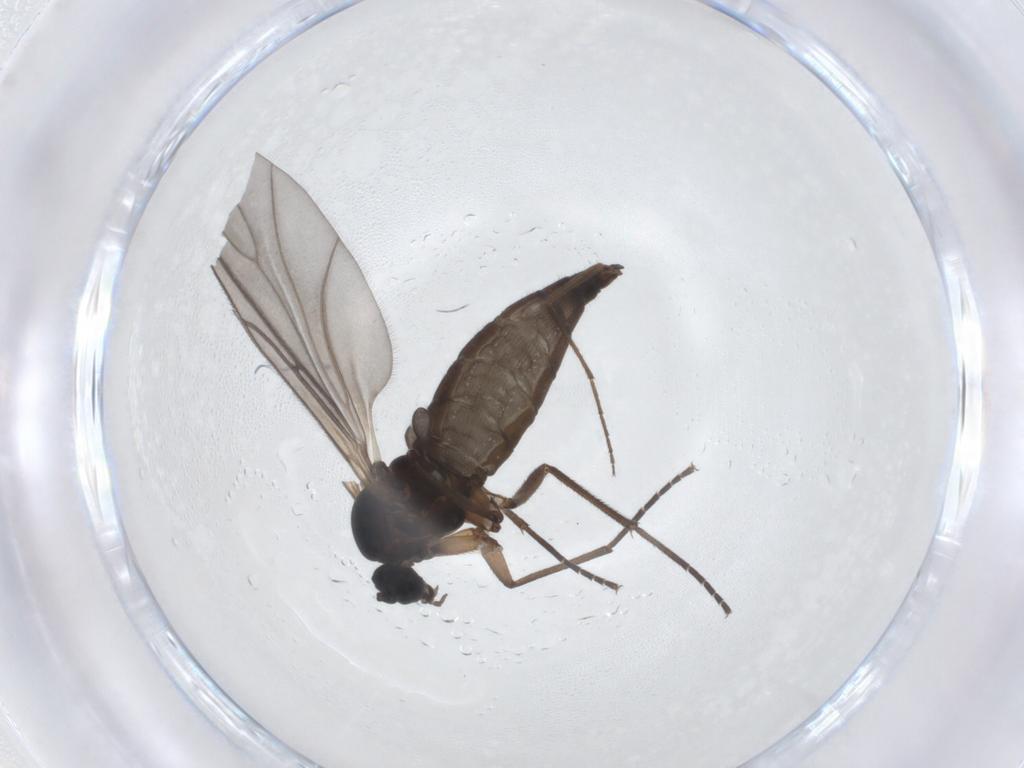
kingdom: Animalia
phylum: Arthropoda
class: Insecta
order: Diptera
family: Sciaridae
